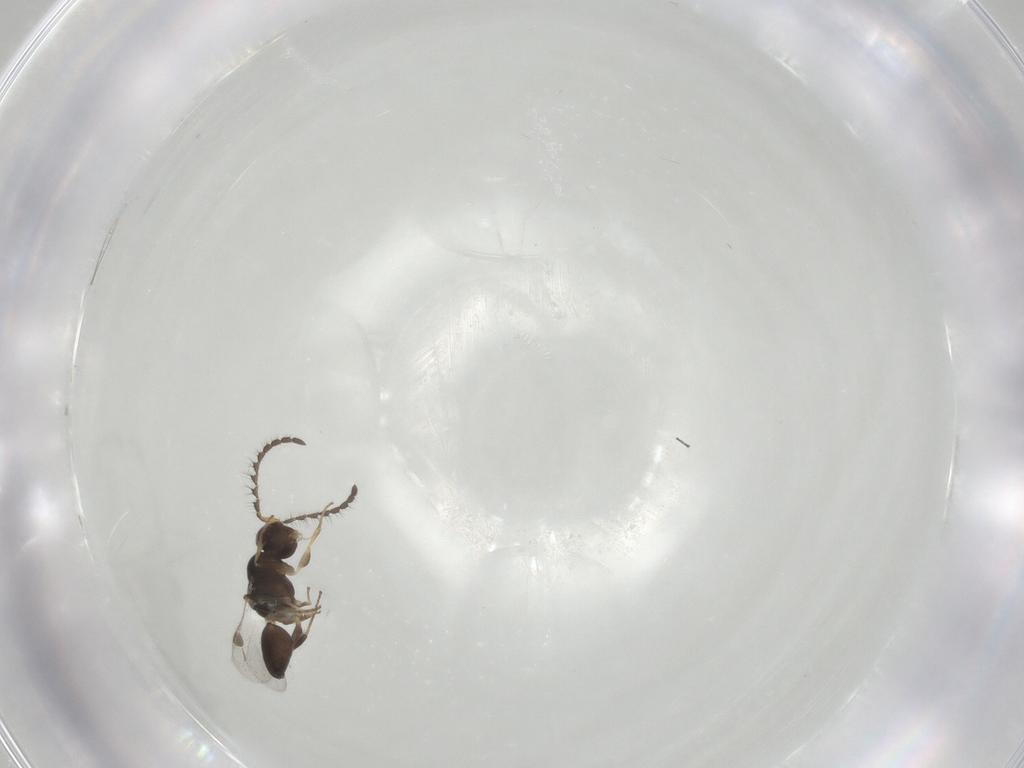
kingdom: Animalia
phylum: Arthropoda
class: Insecta
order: Hymenoptera
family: Megaspilidae
